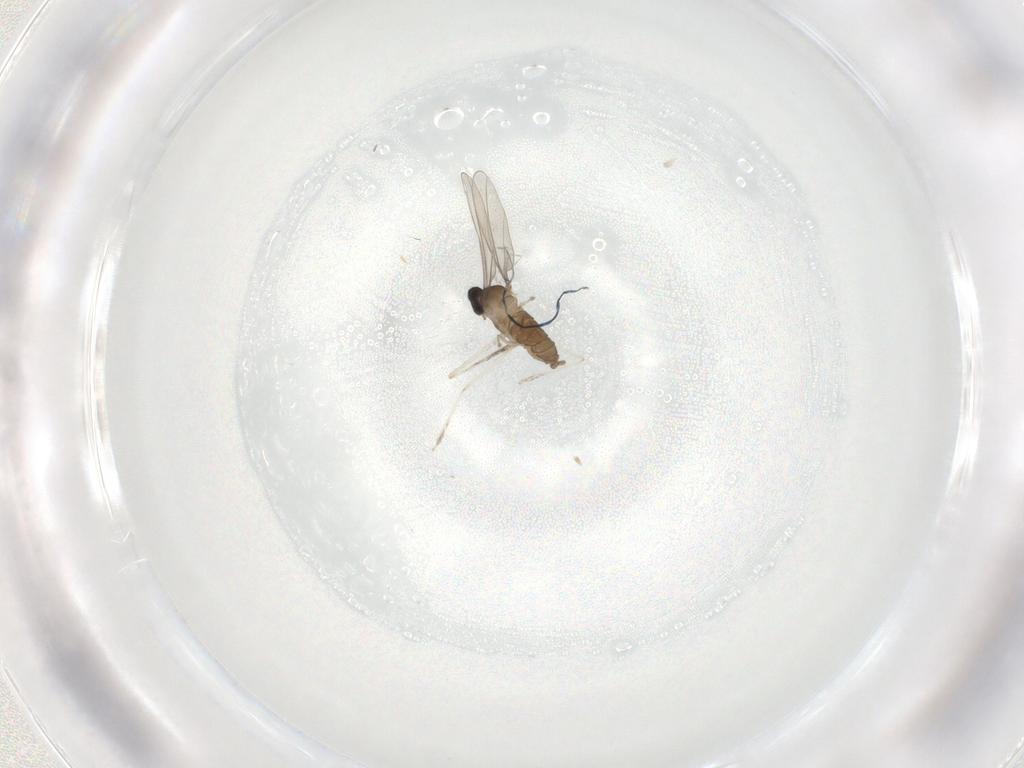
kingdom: Animalia
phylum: Arthropoda
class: Insecta
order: Diptera
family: Cecidomyiidae
